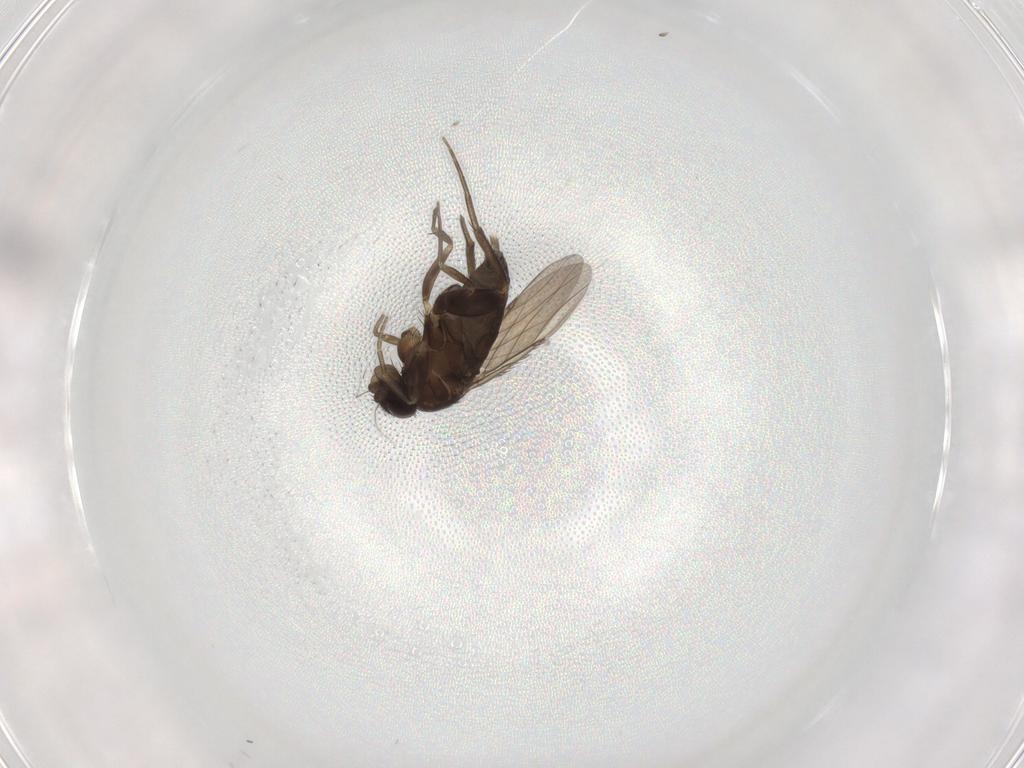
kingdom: Animalia
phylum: Arthropoda
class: Insecta
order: Diptera
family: Phoridae
